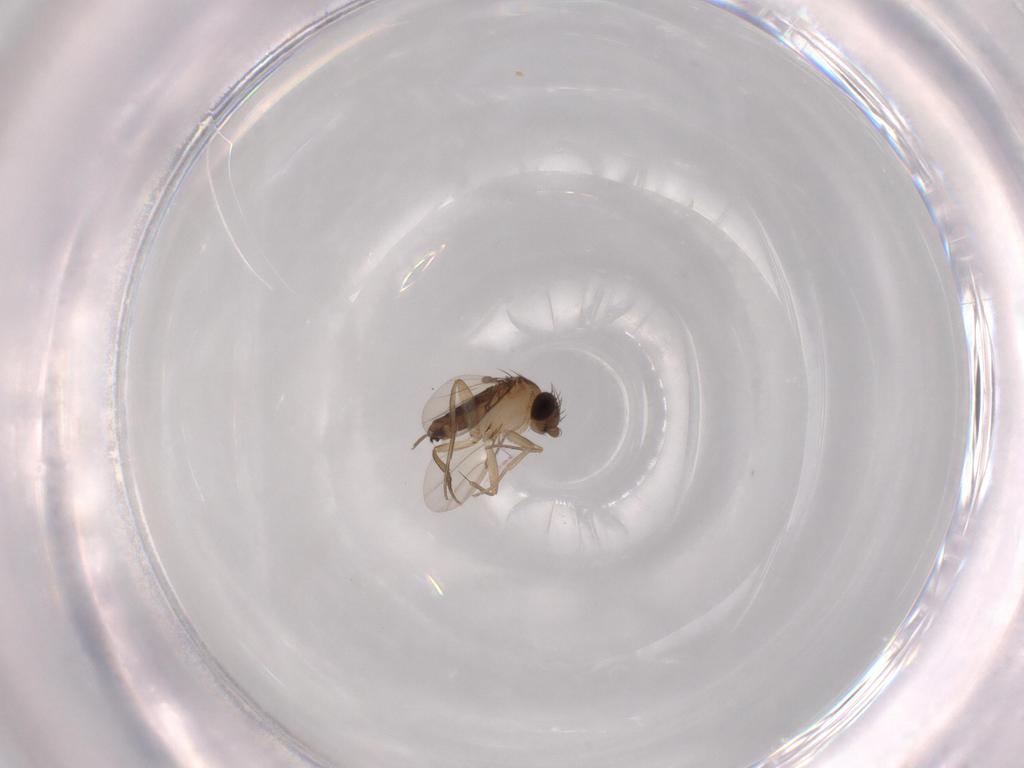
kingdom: Animalia
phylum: Arthropoda
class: Insecta
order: Diptera
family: Phoridae
